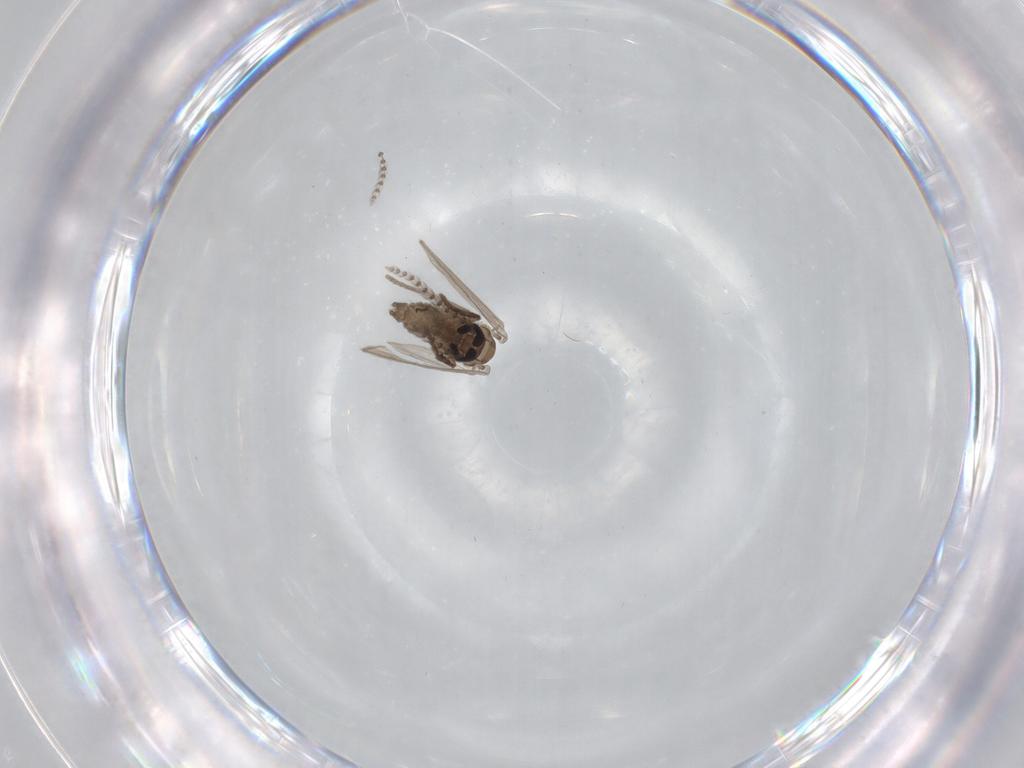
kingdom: Animalia
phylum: Arthropoda
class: Insecta
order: Diptera
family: Psychodidae
